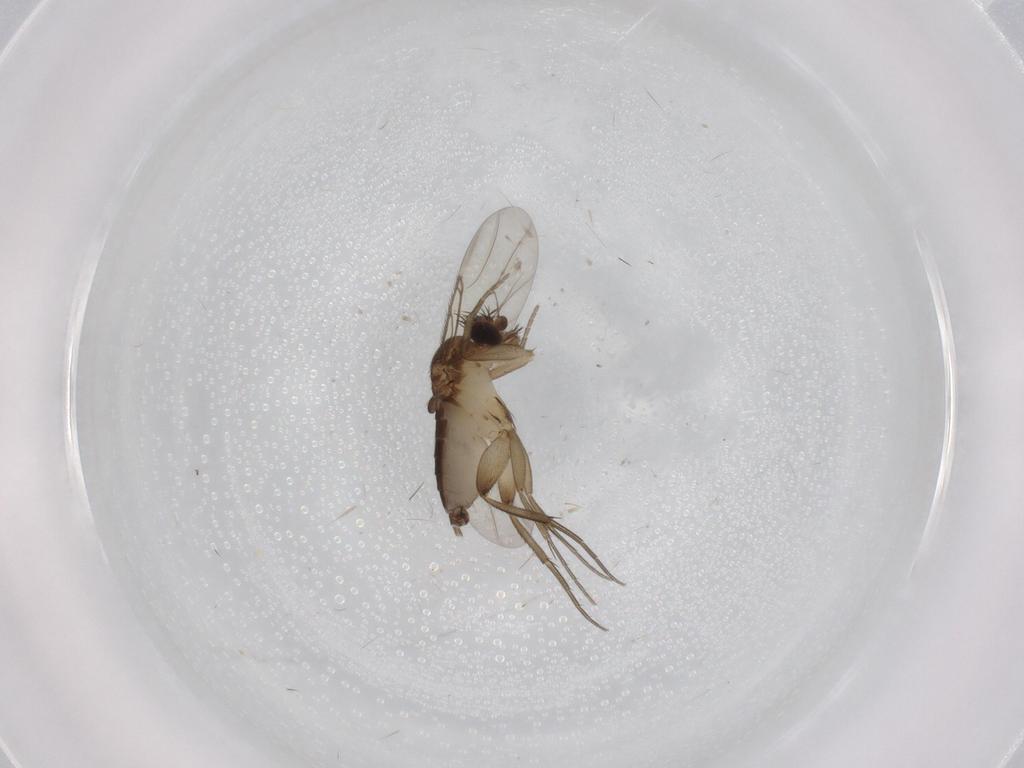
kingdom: Animalia
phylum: Arthropoda
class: Insecta
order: Diptera
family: Phoridae
